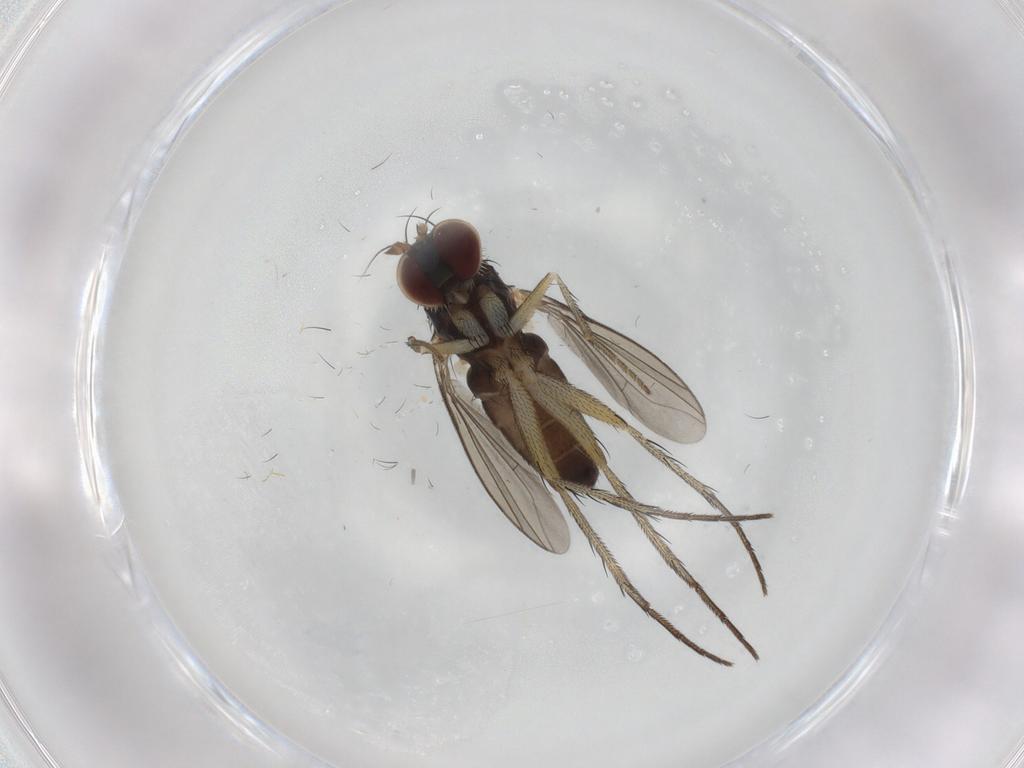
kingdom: Animalia
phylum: Arthropoda
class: Insecta
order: Diptera
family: Dolichopodidae
